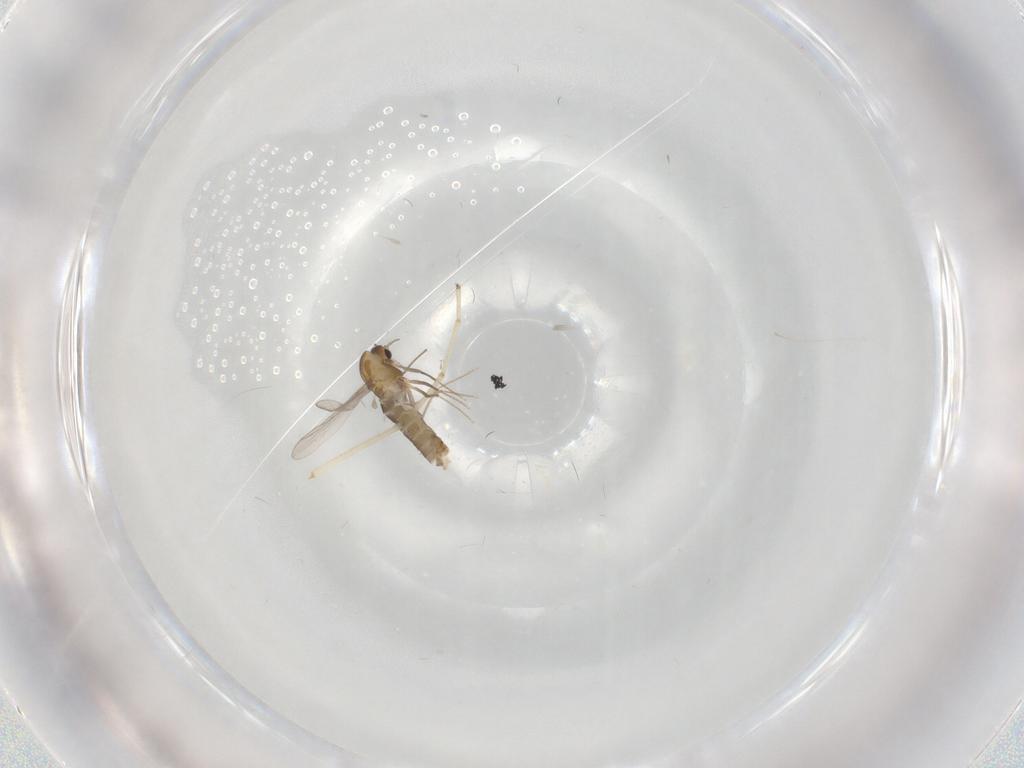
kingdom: Animalia
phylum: Arthropoda
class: Insecta
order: Diptera
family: Chironomidae
